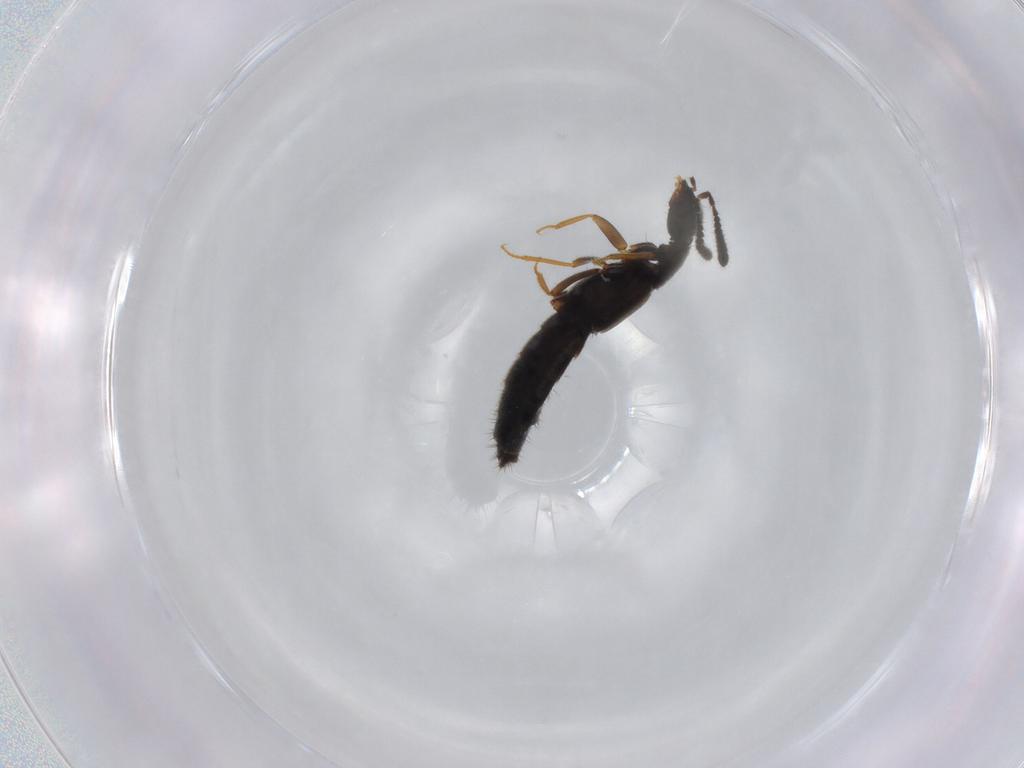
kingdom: Animalia
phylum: Arthropoda
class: Insecta
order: Coleoptera
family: Staphylinidae
